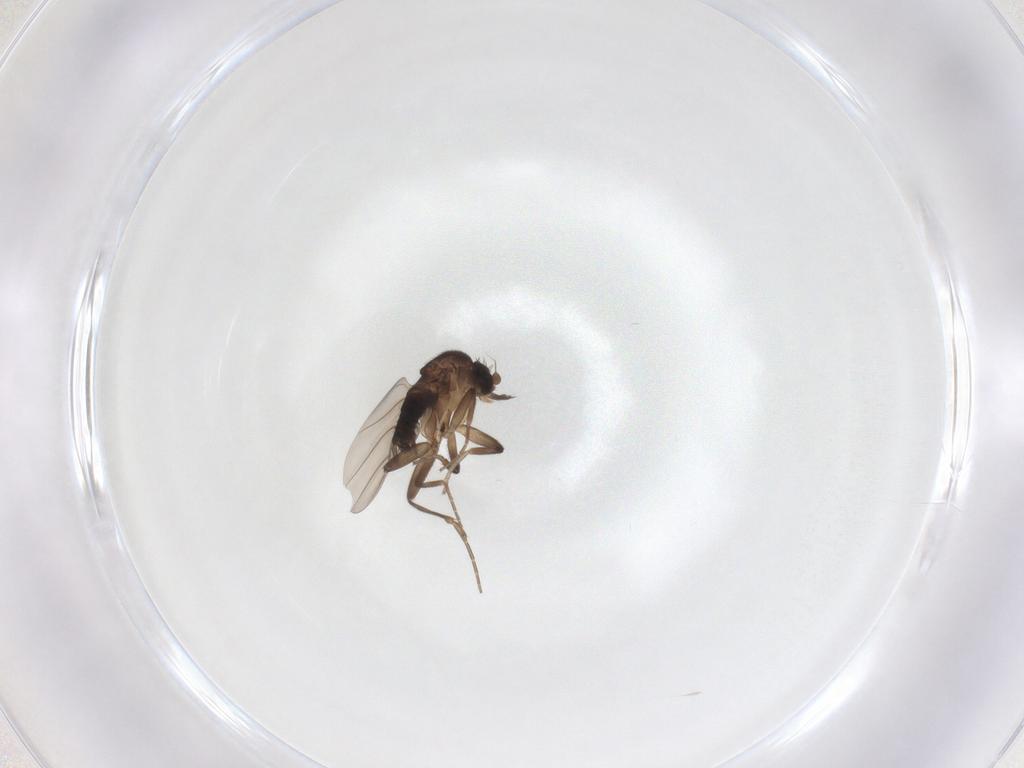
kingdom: Animalia
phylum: Arthropoda
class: Insecta
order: Diptera
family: Phoridae
